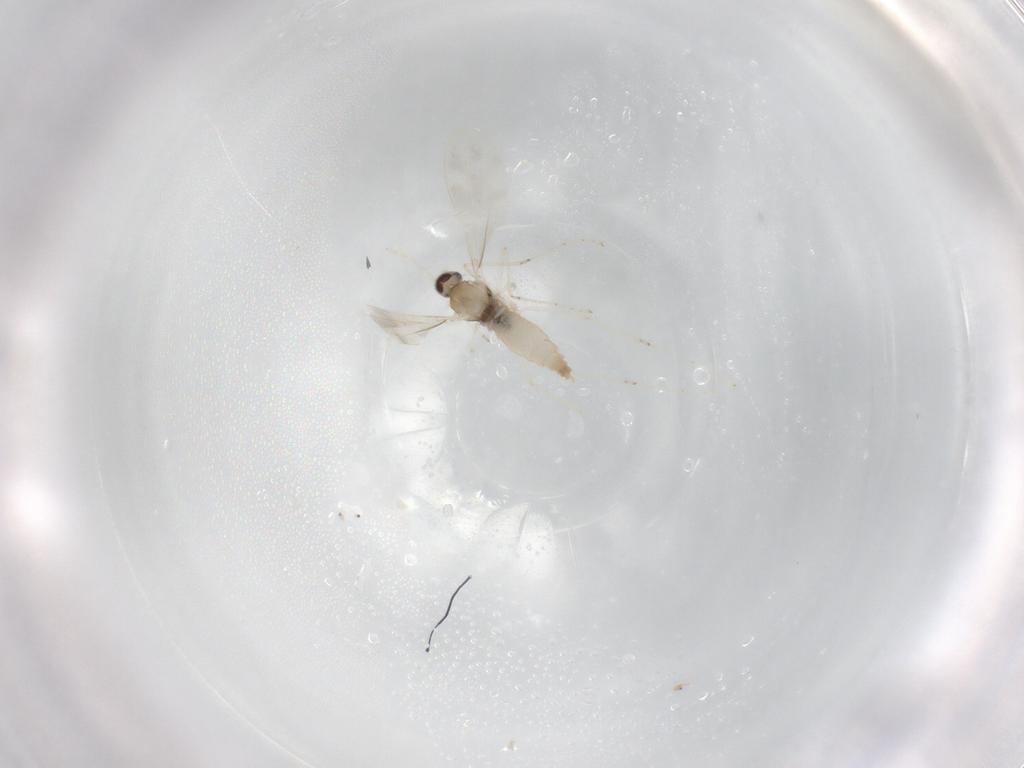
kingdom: Animalia
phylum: Arthropoda
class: Insecta
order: Diptera
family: Cecidomyiidae
